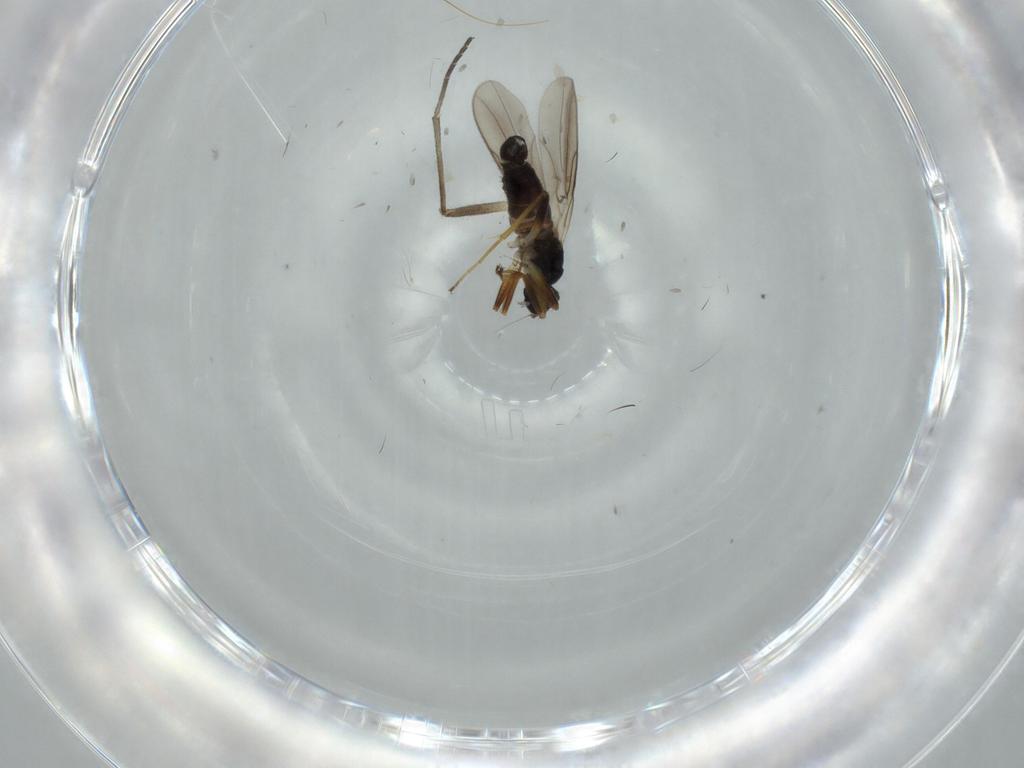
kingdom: Animalia
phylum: Arthropoda
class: Insecta
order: Diptera
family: Hybotidae
